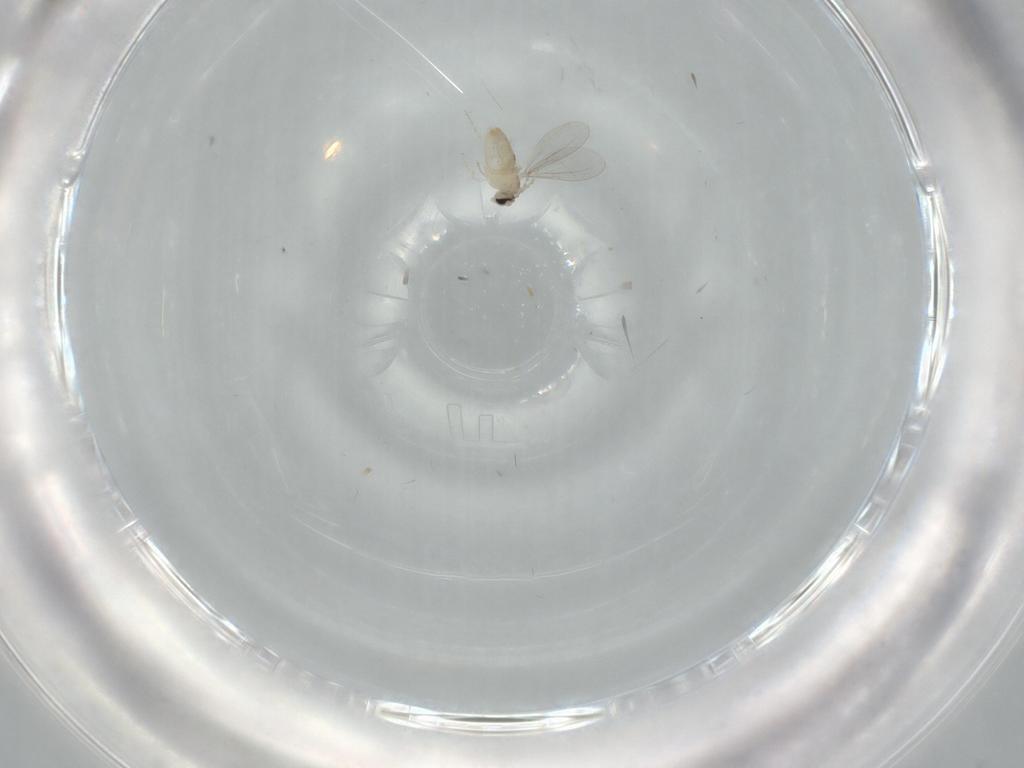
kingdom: Animalia
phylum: Arthropoda
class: Insecta
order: Diptera
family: Cecidomyiidae
